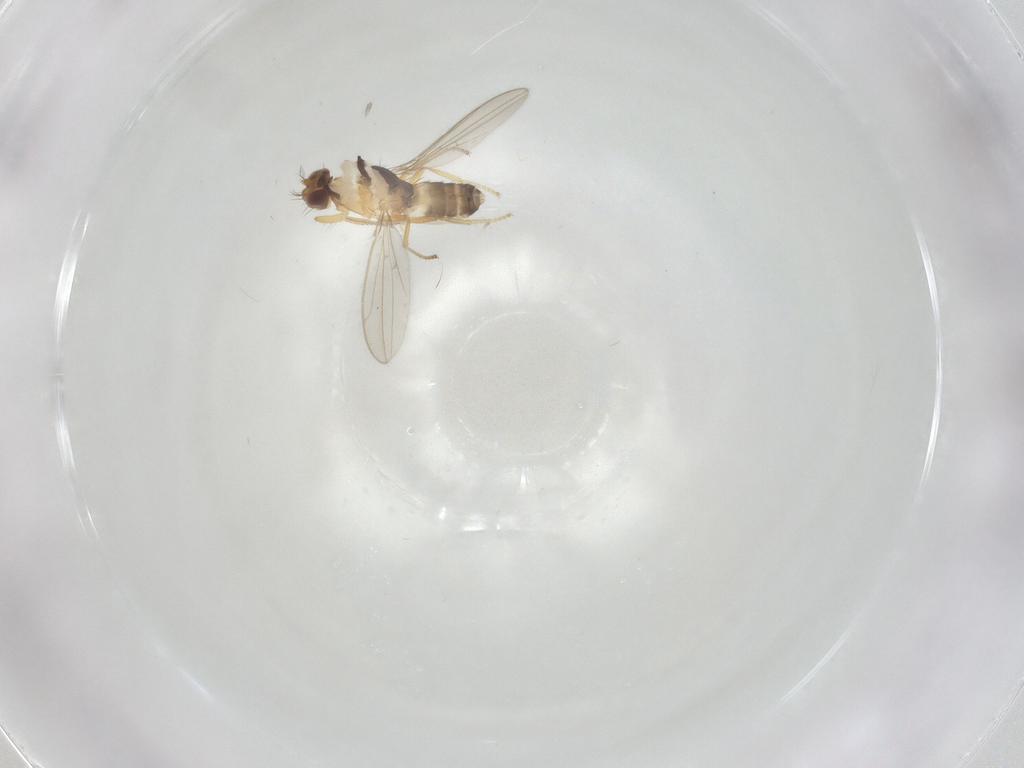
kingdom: Animalia
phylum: Arthropoda
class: Insecta
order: Diptera
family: Periscelididae
